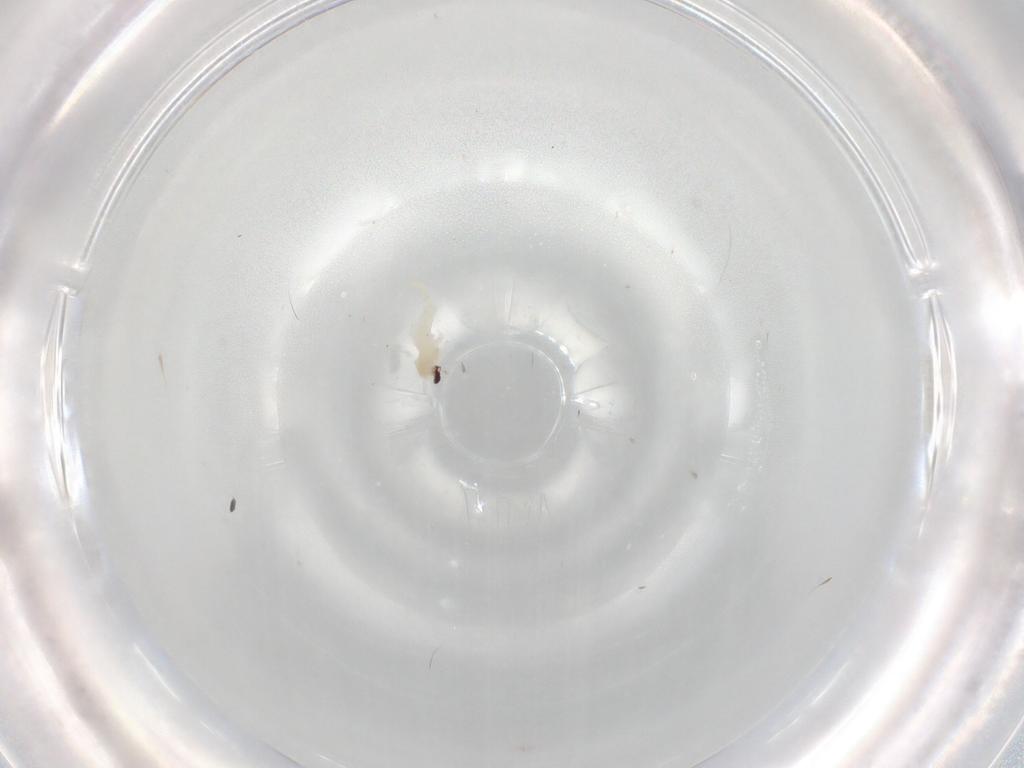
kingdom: Animalia
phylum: Arthropoda
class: Insecta
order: Diptera
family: Cecidomyiidae
